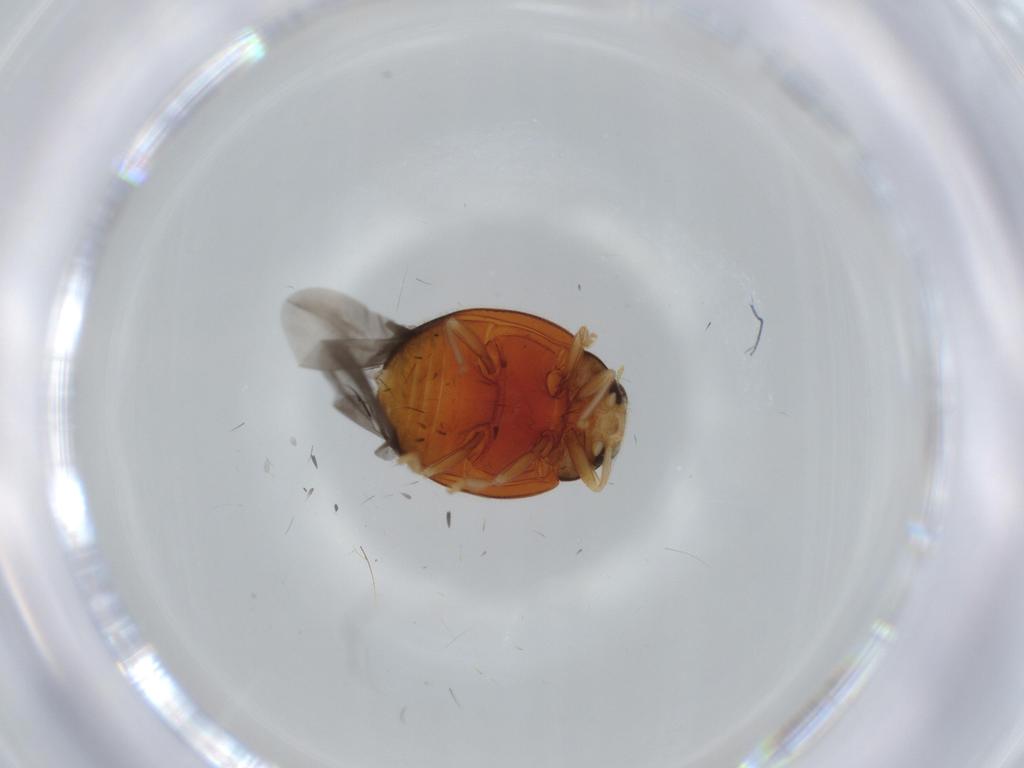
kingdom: Animalia
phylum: Arthropoda
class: Insecta
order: Coleoptera
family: Coccinellidae
